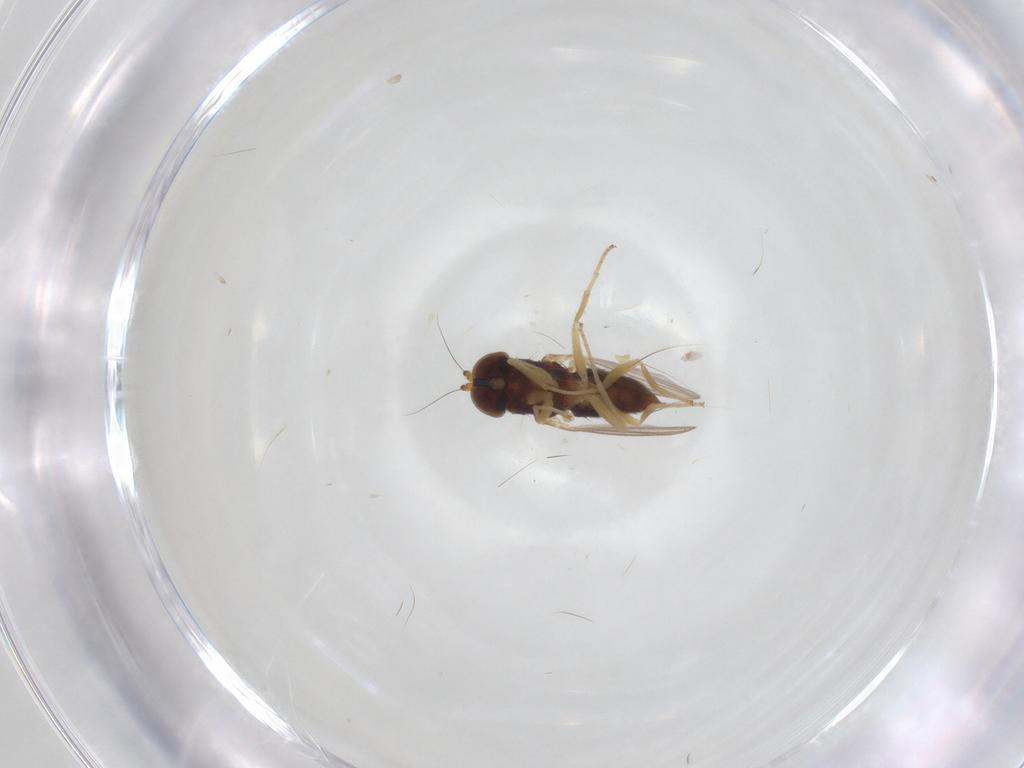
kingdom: Animalia
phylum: Arthropoda
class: Insecta
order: Diptera
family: Dolichopodidae
